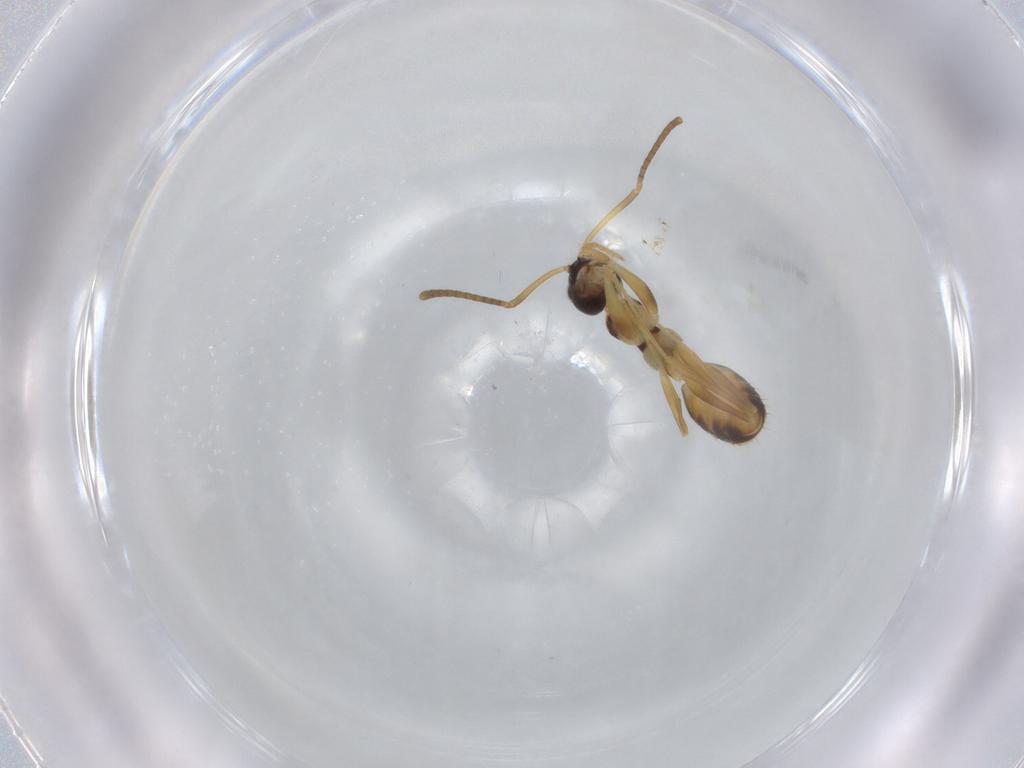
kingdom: Animalia
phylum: Arthropoda
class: Insecta
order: Hymenoptera
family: Formicidae
